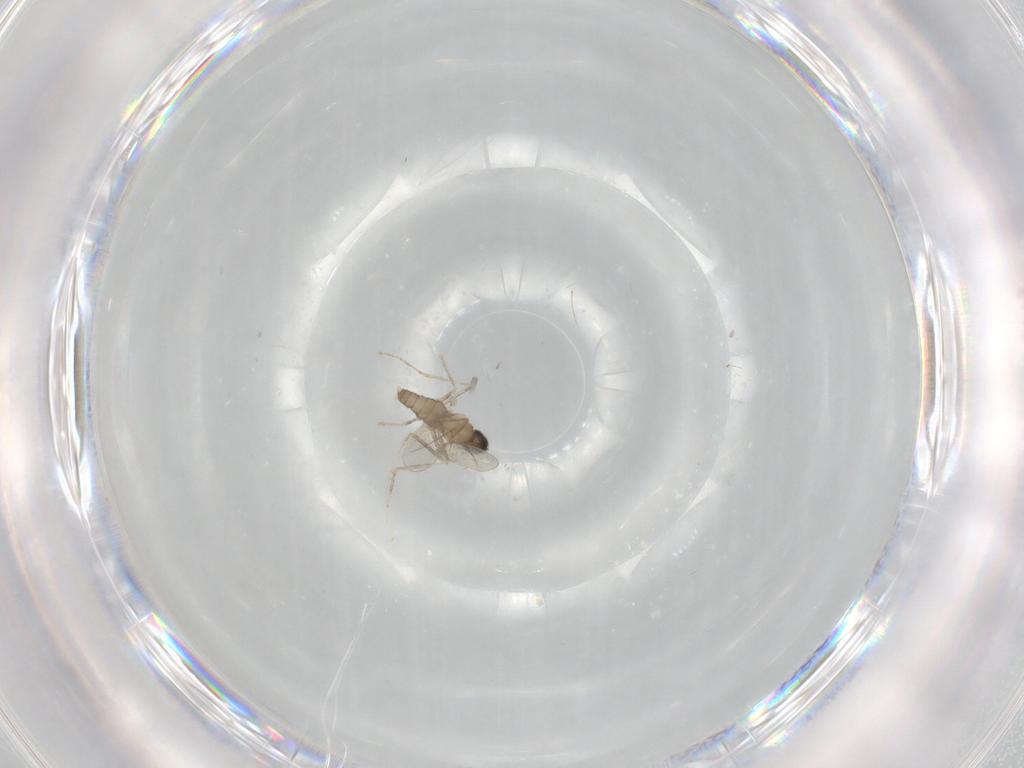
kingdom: Animalia
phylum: Arthropoda
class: Insecta
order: Diptera
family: Cecidomyiidae
